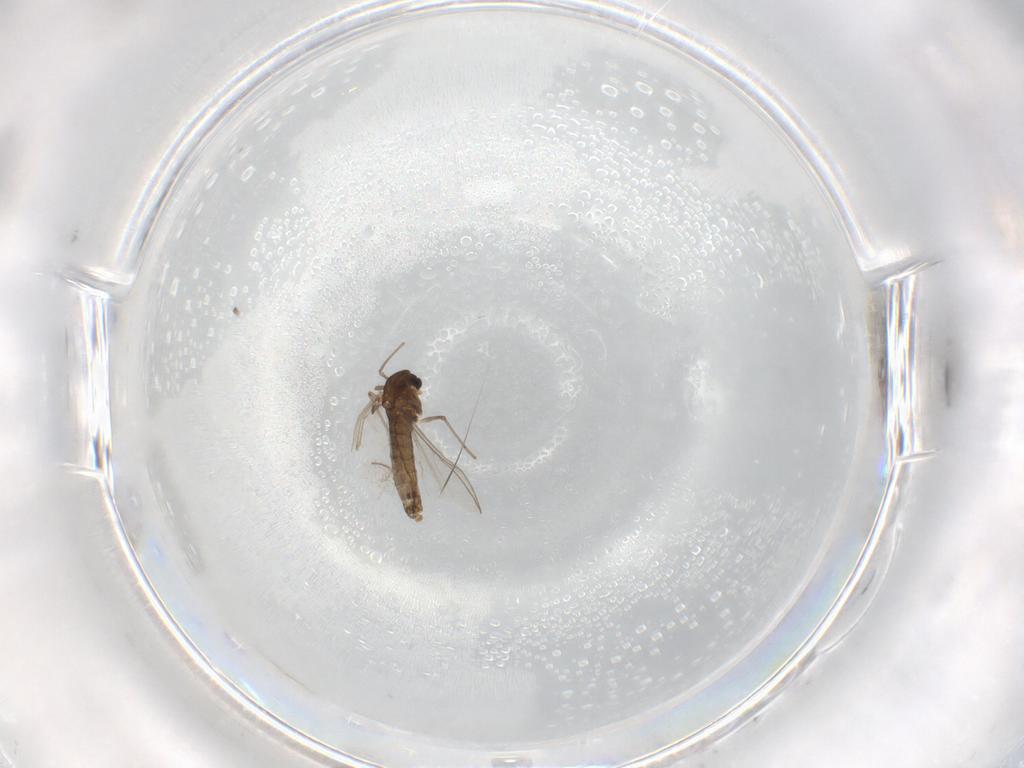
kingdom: Animalia
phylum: Arthropoda
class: Insecta
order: Diptera
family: Chironomidae
